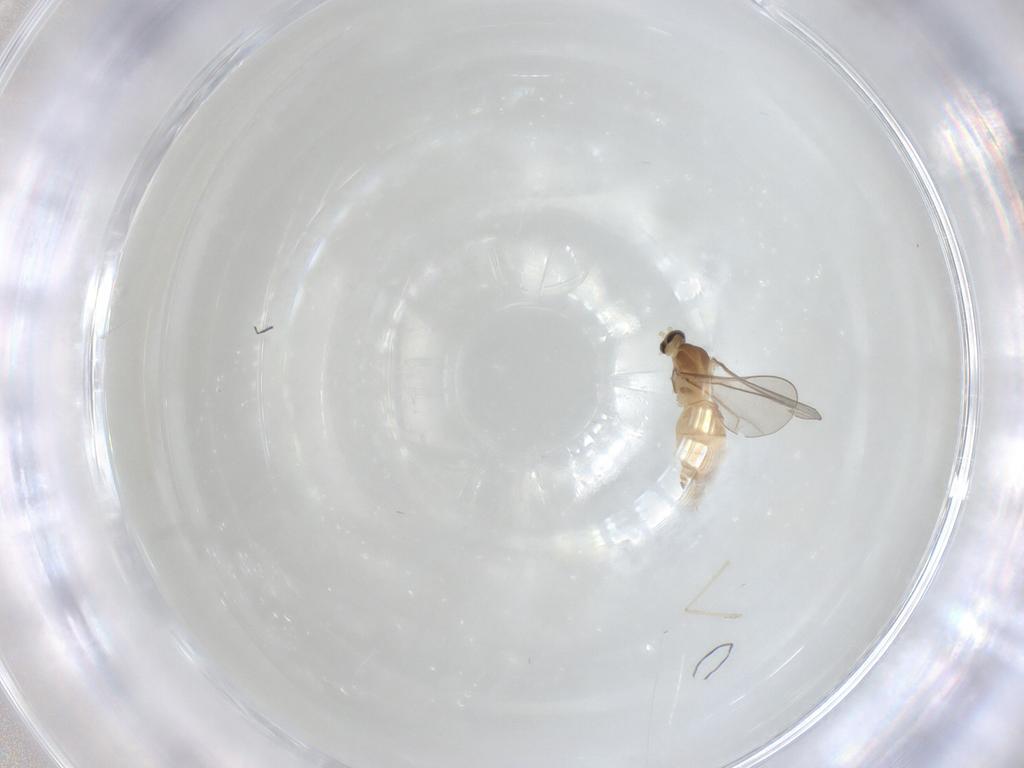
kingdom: Animalia
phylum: Arthropoda
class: Insecta
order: Diptera
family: Cecidomyiidae
